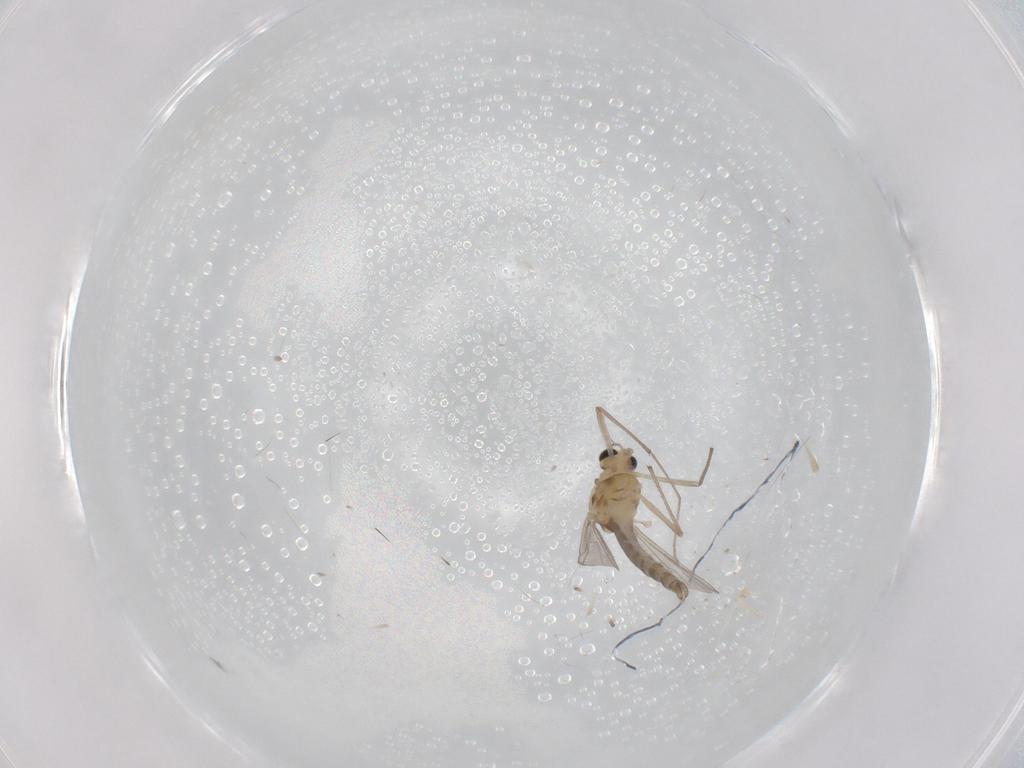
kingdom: Animalia
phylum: Arthropoda
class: Insecta
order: Diptera
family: Chironomidae
